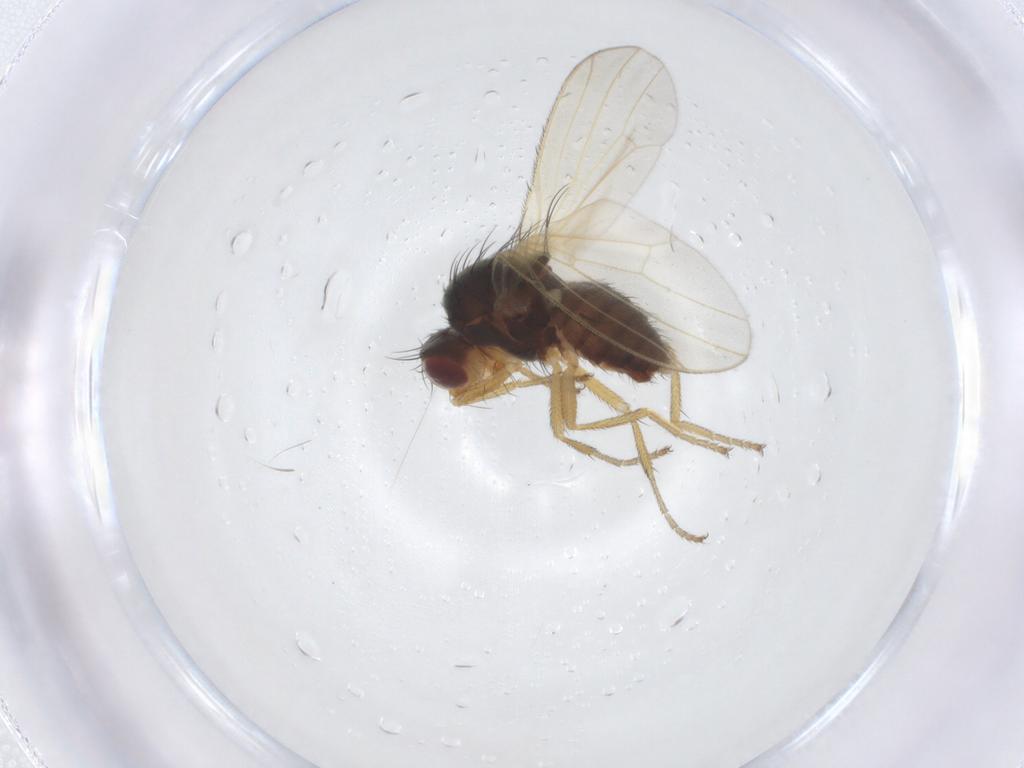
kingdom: Animalia
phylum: Arthropoda
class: Insecta
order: Diptera
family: Heleomyzidae
